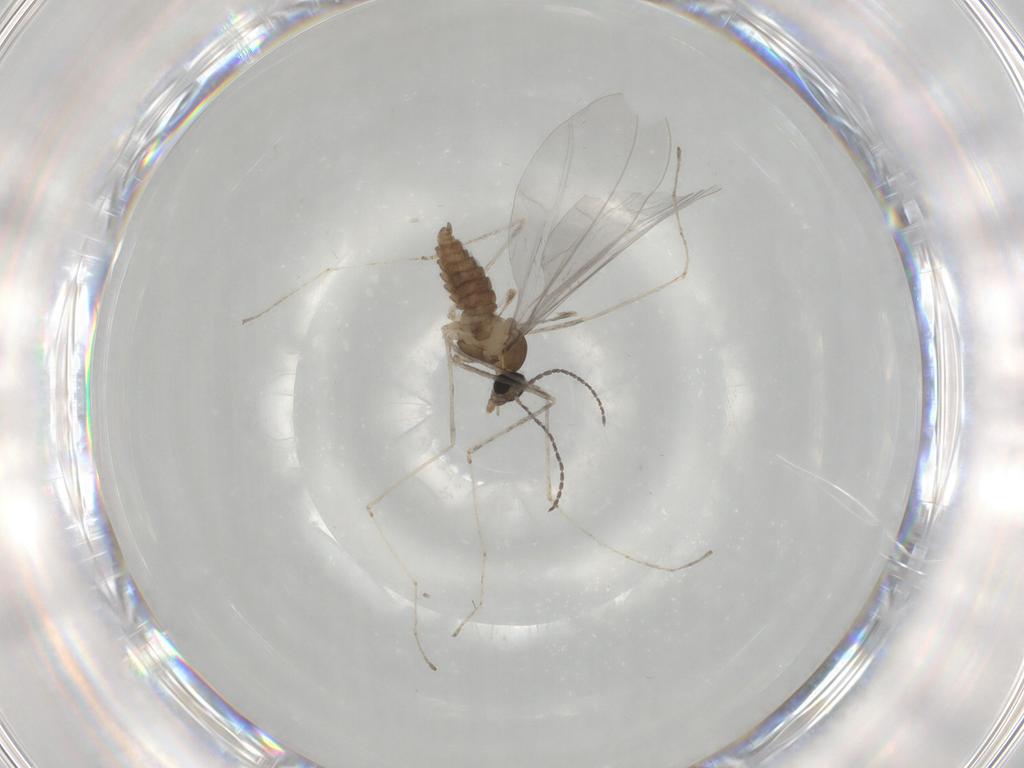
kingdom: Animalia
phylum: Arthropoda
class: Insecta
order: Diptera
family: Cecidomyiidae
